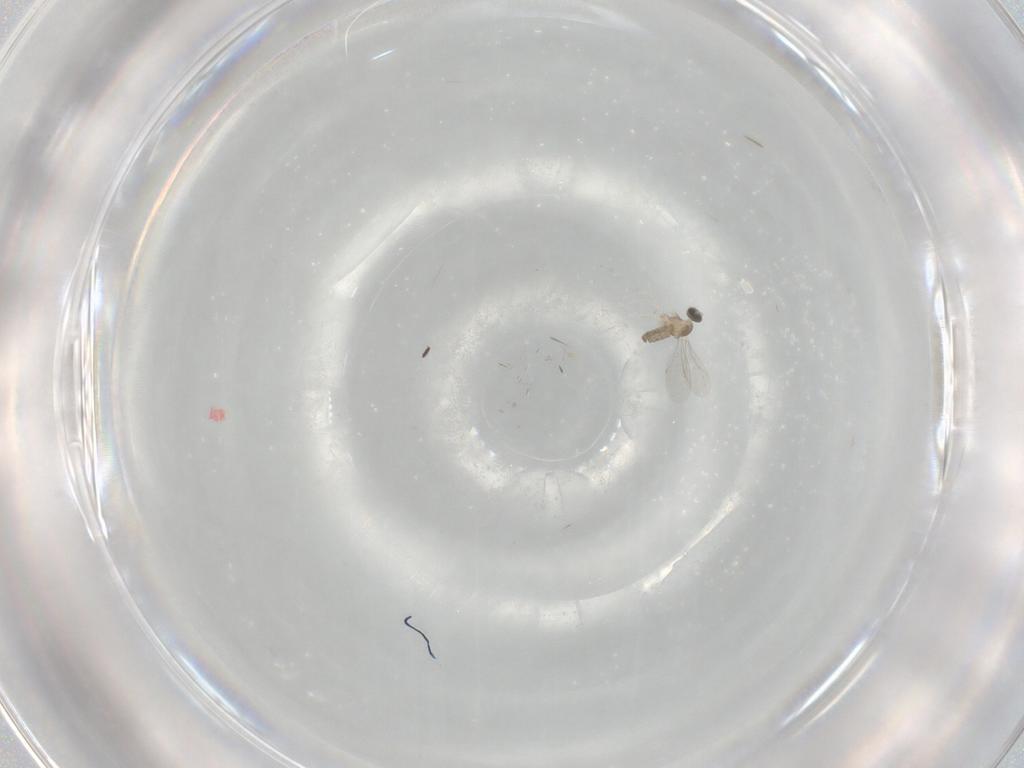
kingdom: Animalia
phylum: Arthropoda
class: Insecta
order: Diptera
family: Cecidomyiidae
